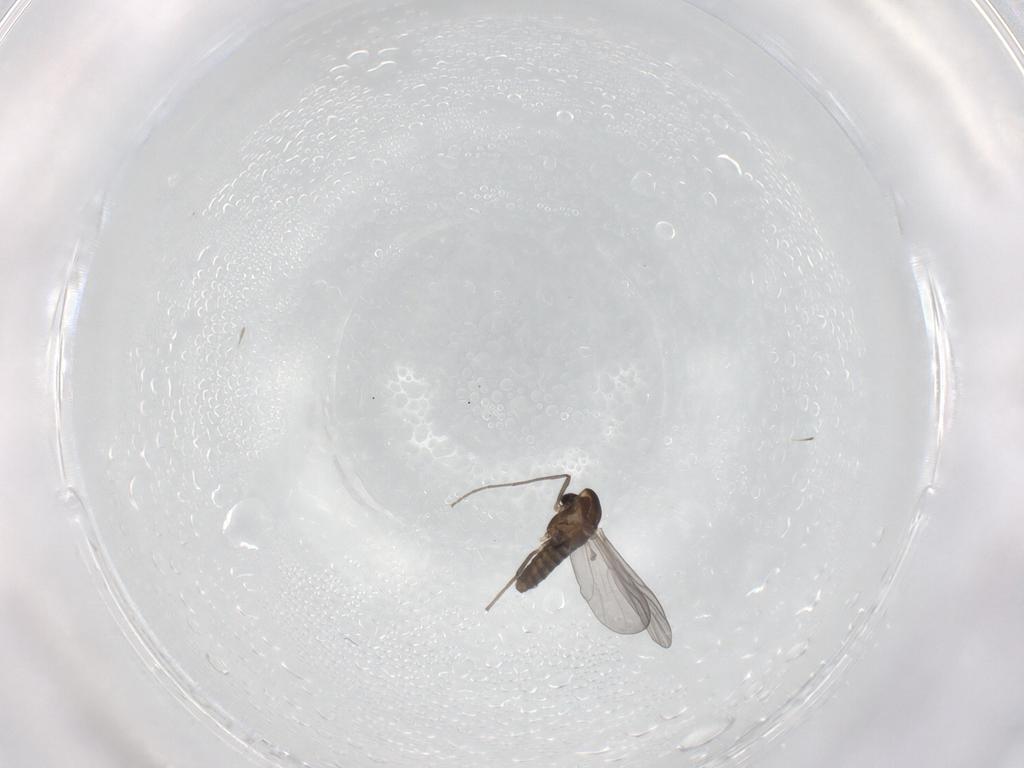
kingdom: Animalia
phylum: Arthropoda
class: Insecta
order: Diptera
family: Chironomidae
